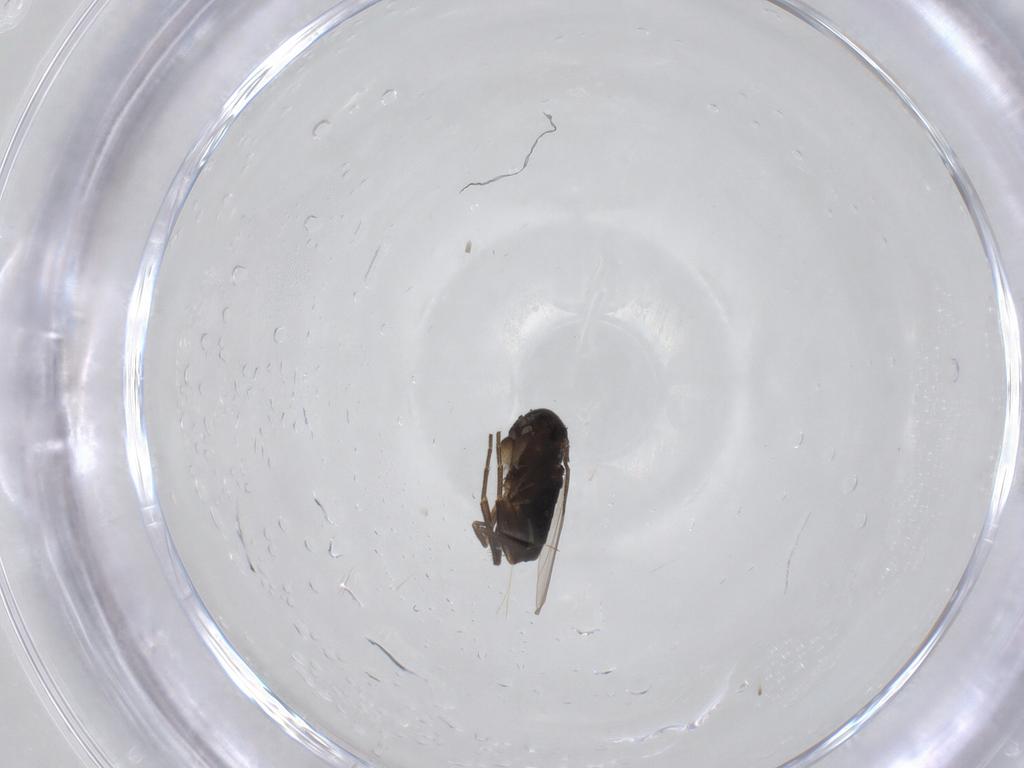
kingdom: Animalia
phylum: Arthropoda
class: Insecta
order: Diptera
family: Phoridae
